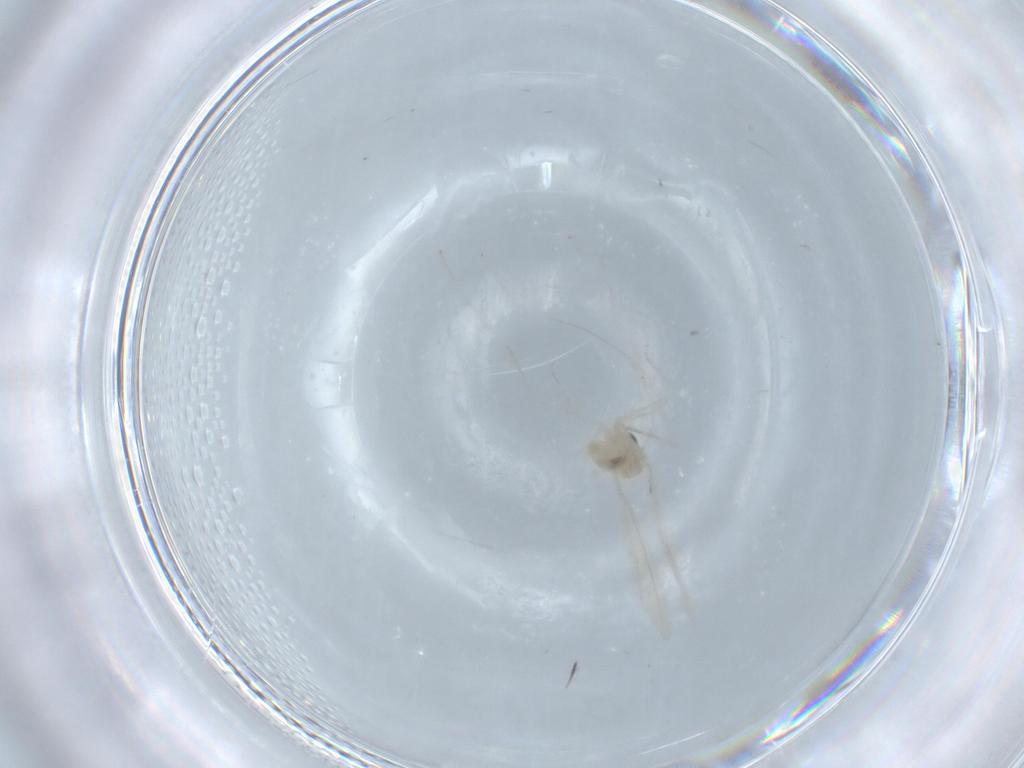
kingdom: Animalia
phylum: Arthropoda
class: Insecta
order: Diptera
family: Cecidomyiidae
